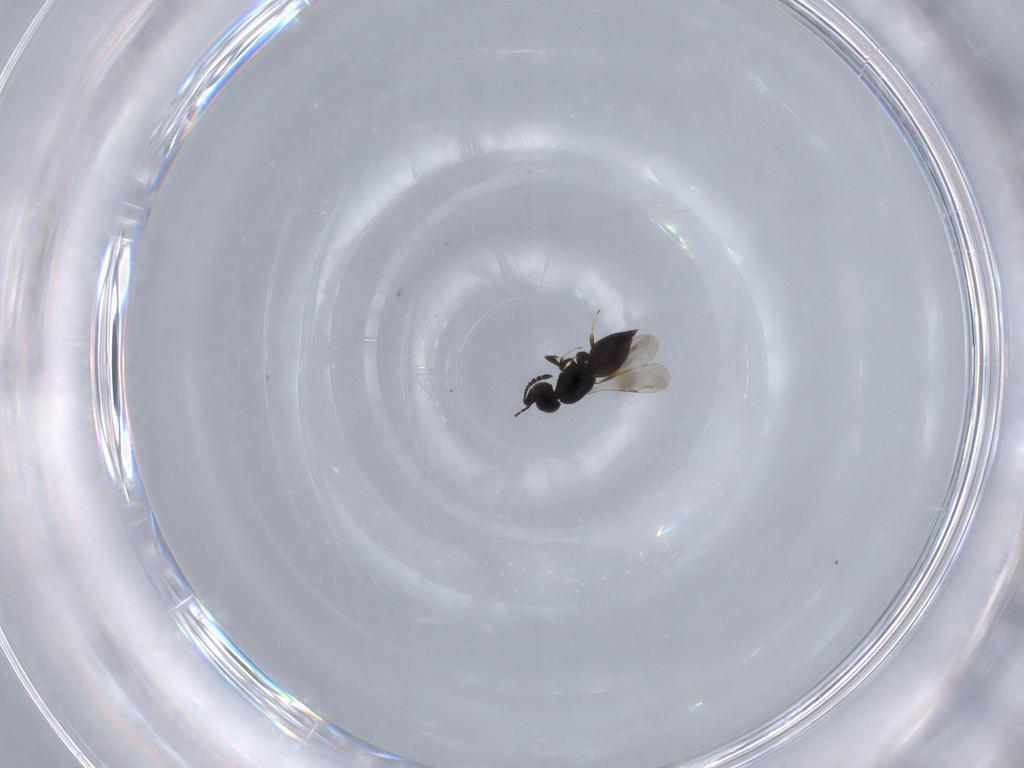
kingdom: Animalia
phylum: Arthropoda
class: Insecta
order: Hymenoptera
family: Ceraphronidae
